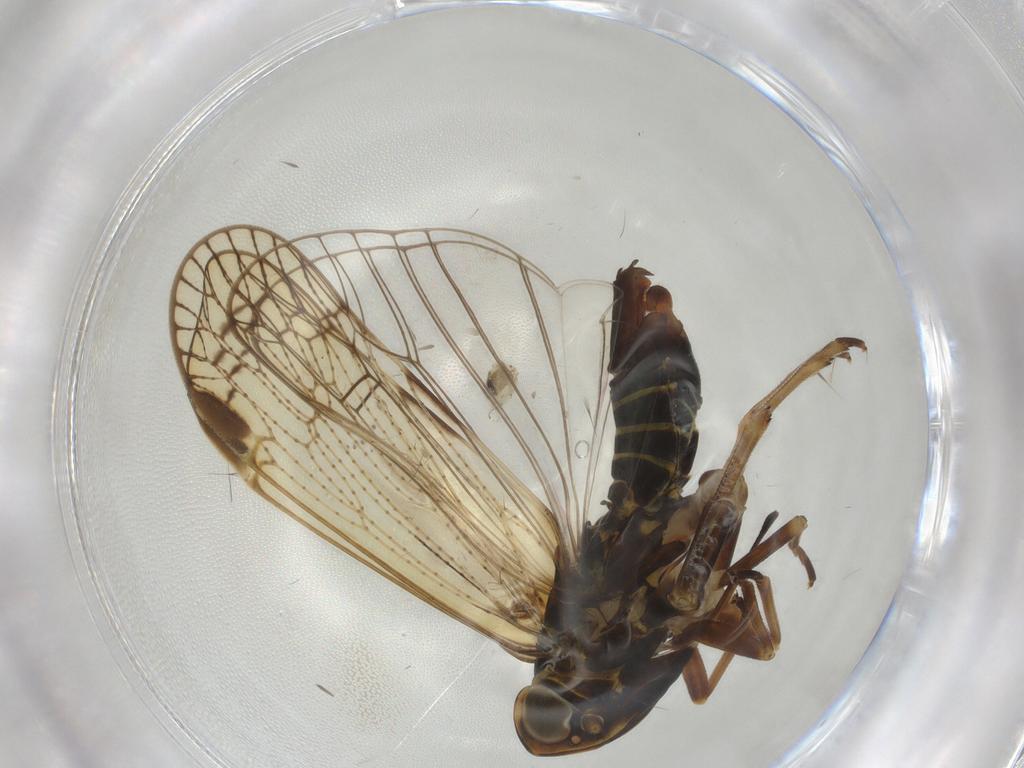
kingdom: Animalia
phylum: Arthropoda
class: Insecta
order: Hemiptera
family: Cixiidae
